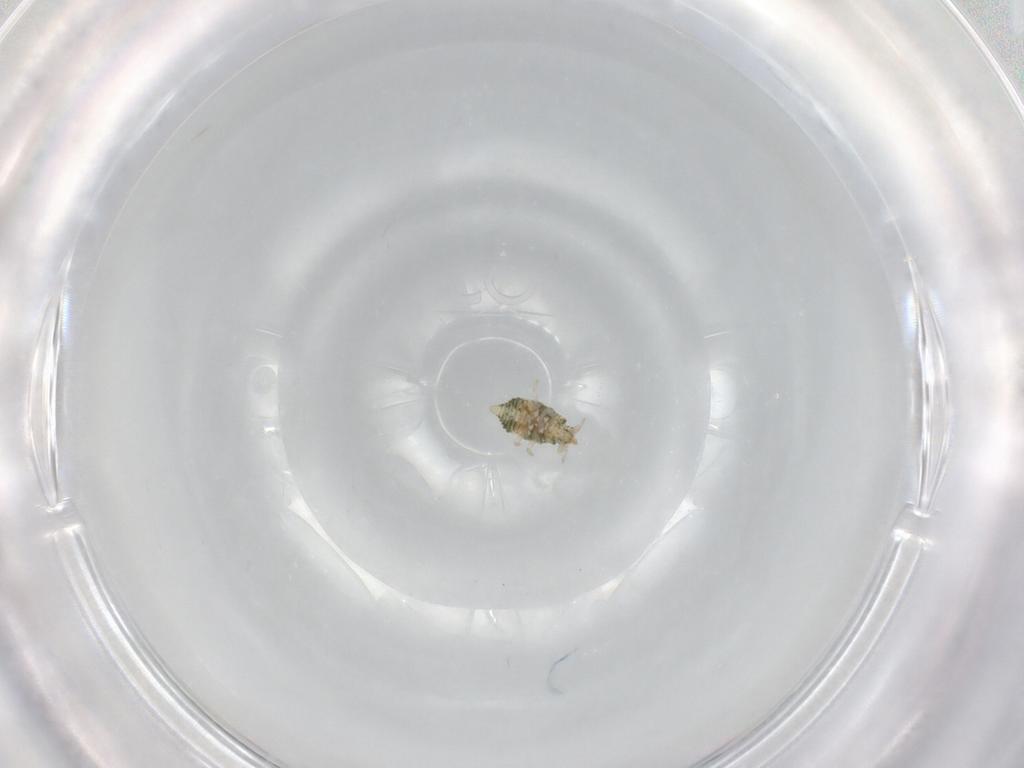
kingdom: Animalia
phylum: Arthropoda
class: Insecta
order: Neuroptera
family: Coniopterygidae
